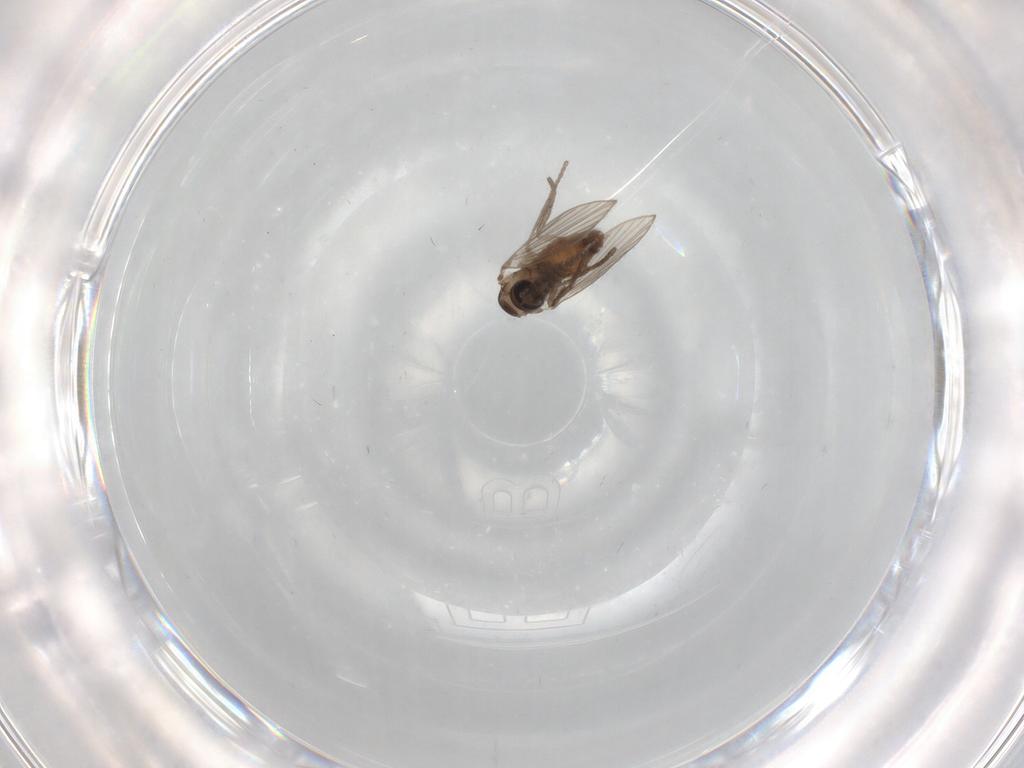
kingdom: Animalia
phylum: Arthropoda
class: Insecta
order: Diptera
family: Psychodidae
